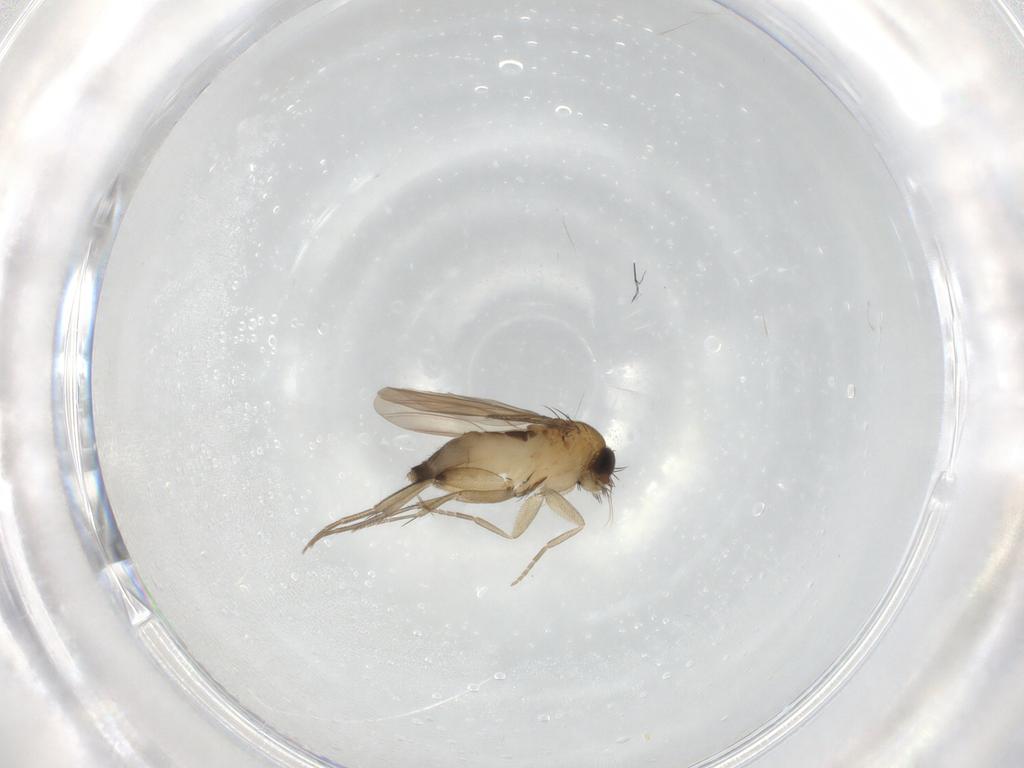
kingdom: Animalia
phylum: Arthropoda
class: Insecta
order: Diptera
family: Phoridae
